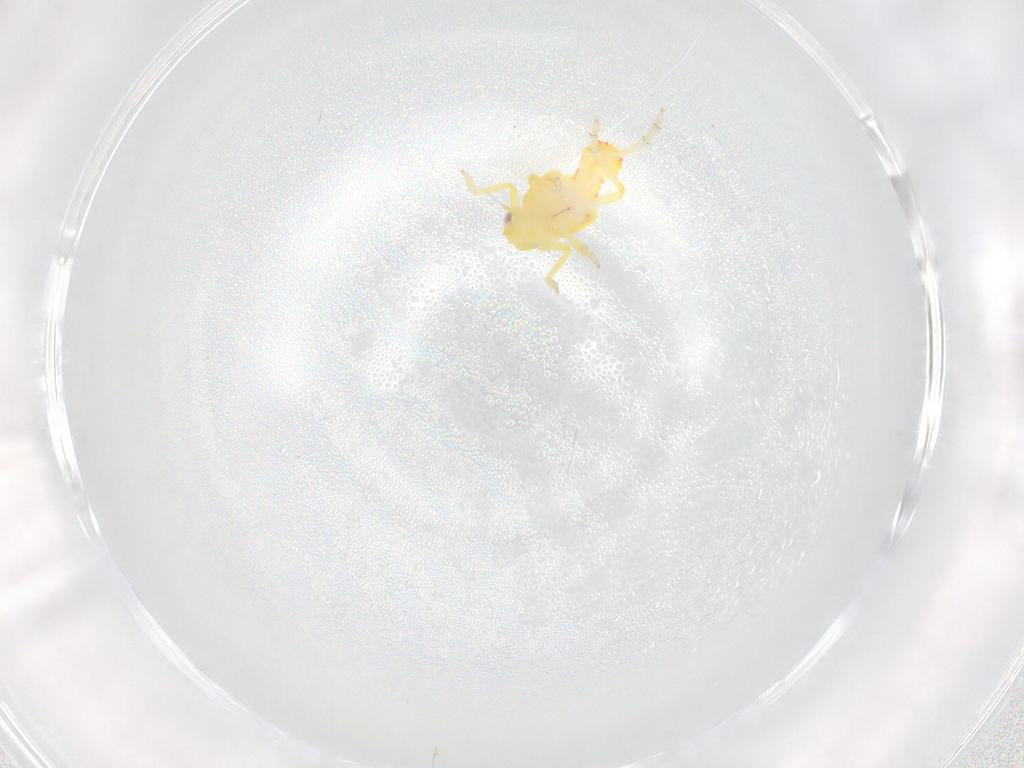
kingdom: Animalia
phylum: Arthropoda
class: Insecta
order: Hemiptera
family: Tropiduchidae
